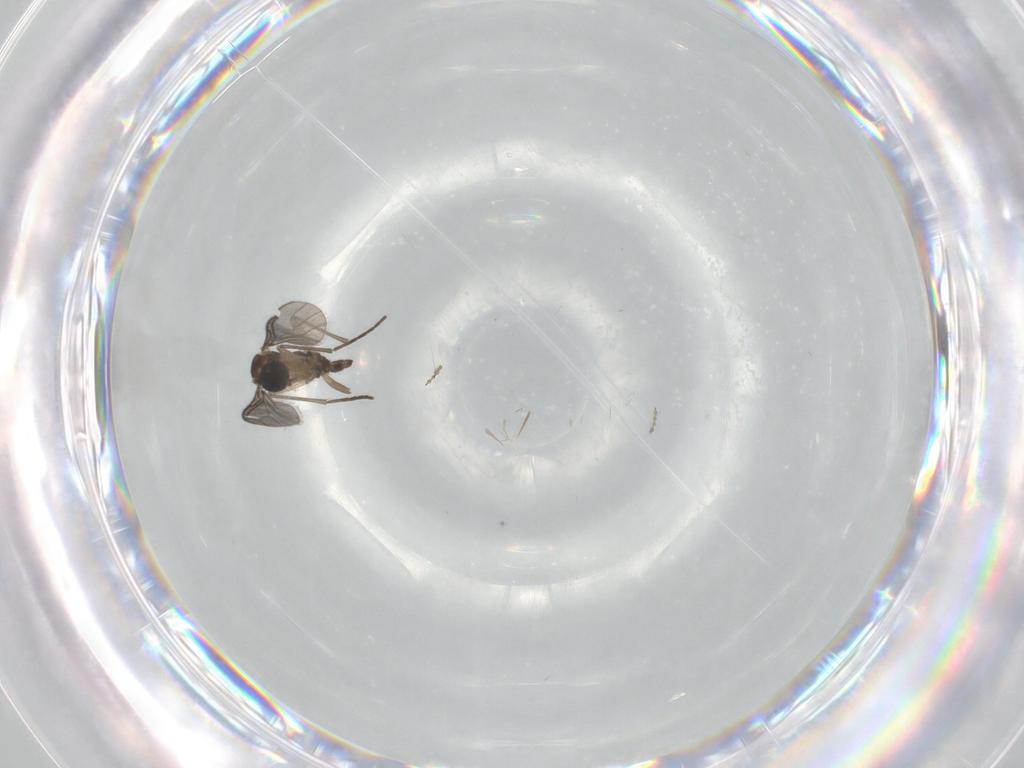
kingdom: Animalia
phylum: Arthropoda
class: Insecta
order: Diptera
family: Sciaridae
